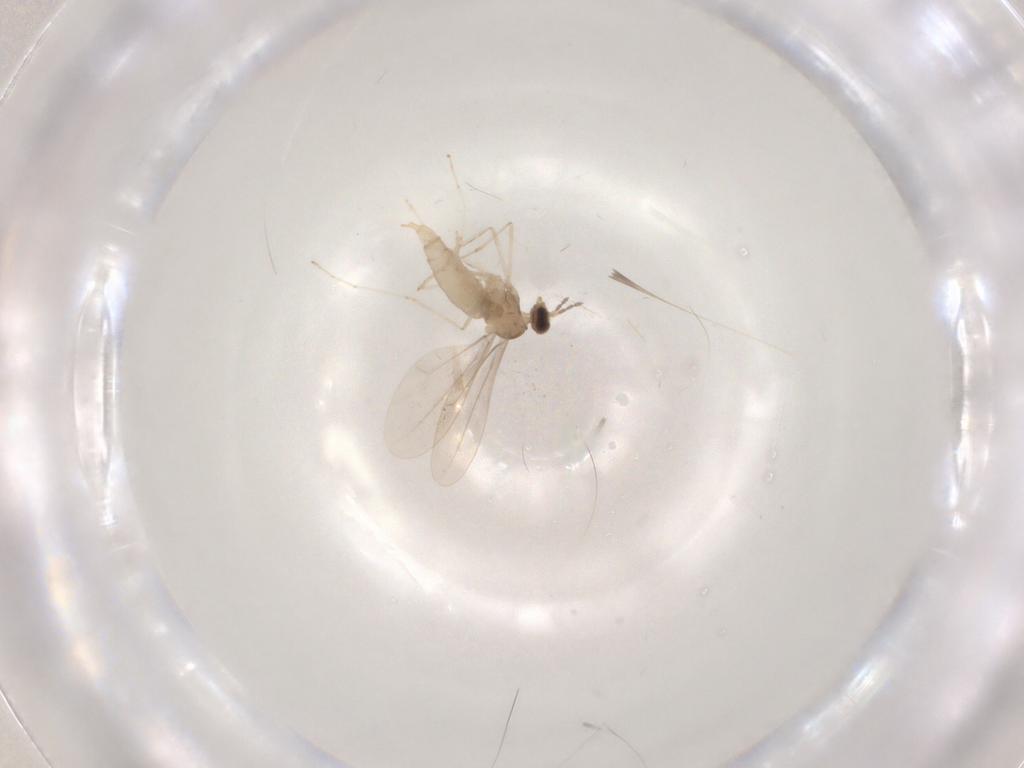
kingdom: Animalia
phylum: Arthropoda
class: Insecta
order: Diptera
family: Cecidomyiidae
